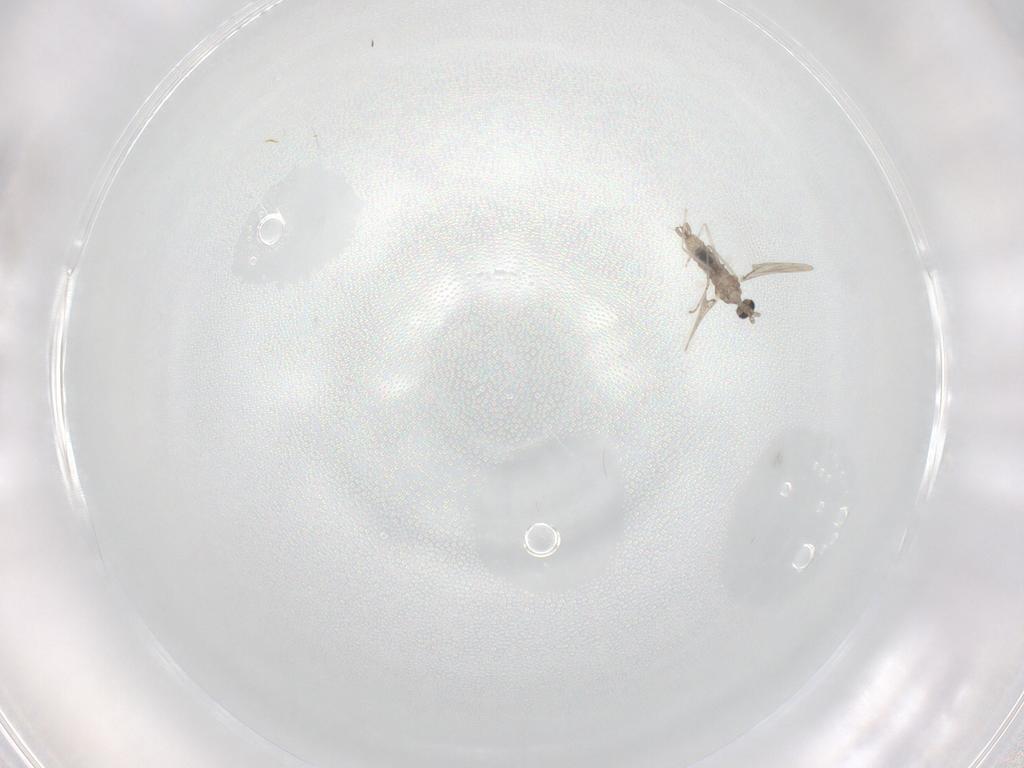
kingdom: Animalia
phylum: Arthropoda
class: Insecta
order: Diptera
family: Cecidomyiidae
